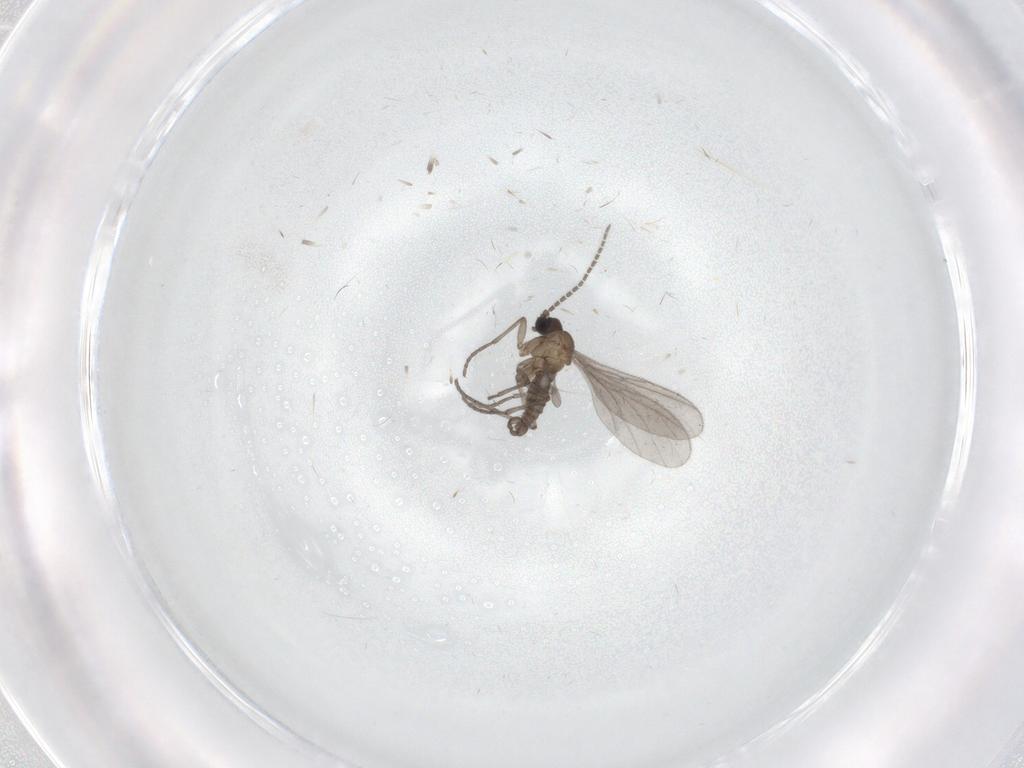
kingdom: Animalia
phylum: Arthropoda
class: Insecta
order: Diptera
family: Sciaridae
